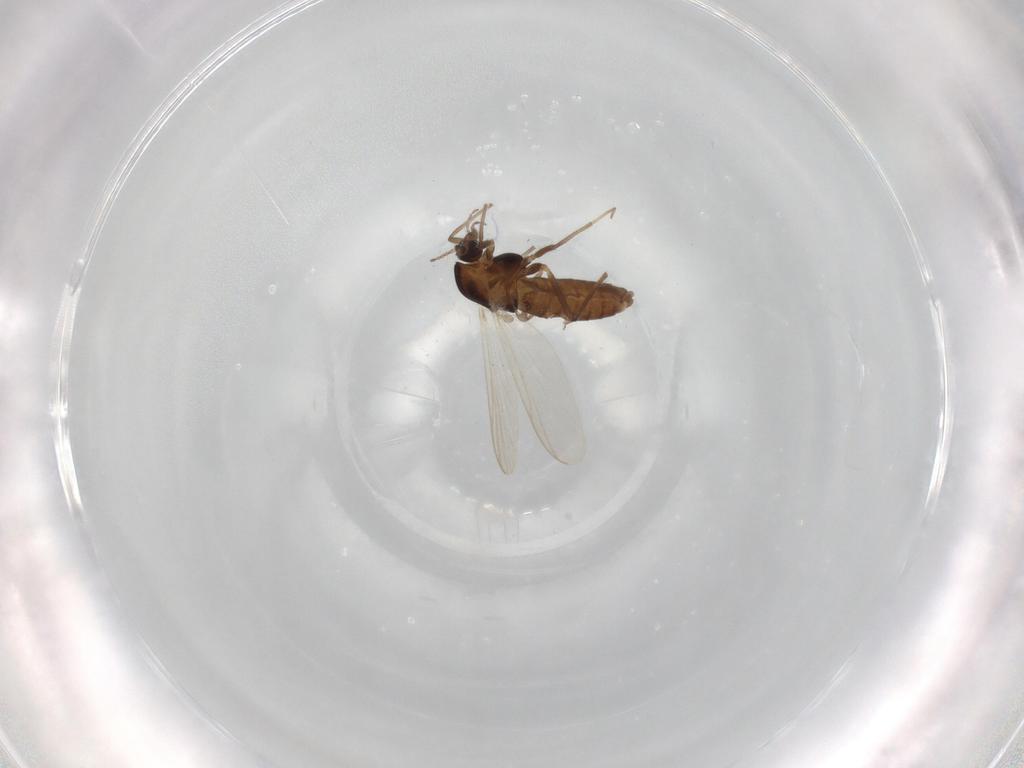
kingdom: Animalia
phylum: Arthropoda
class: Insecta
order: Diptera
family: Chironomidae
